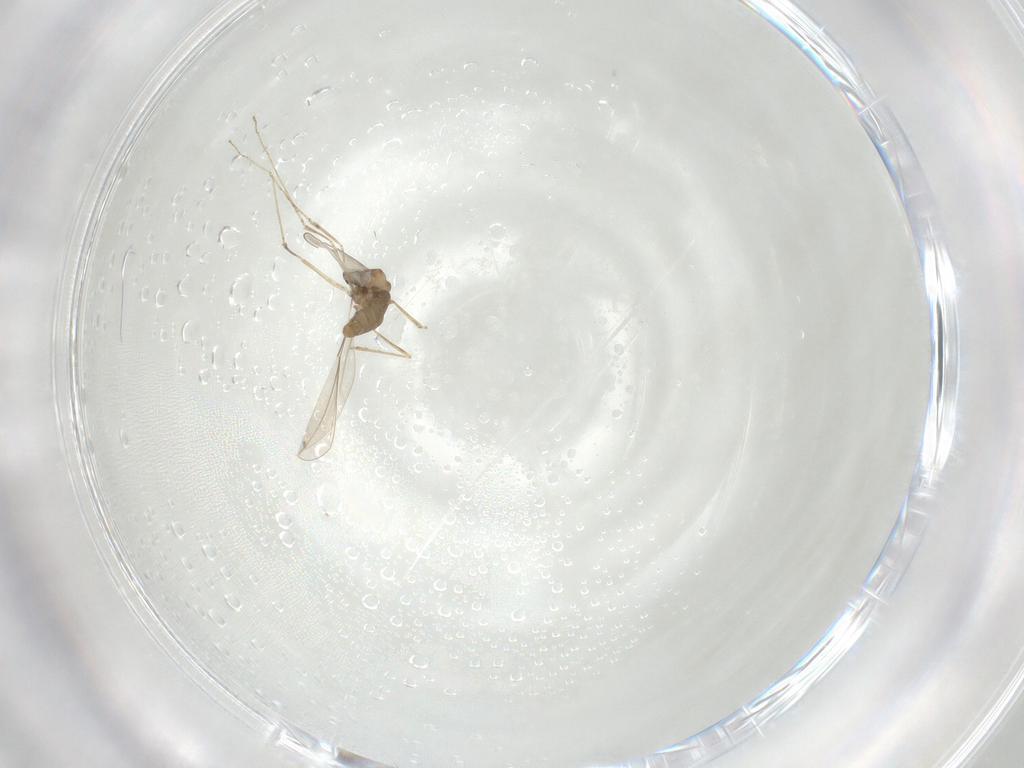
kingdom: Animalia
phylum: Arthropoda
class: Insecta
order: Diptera
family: Cecidomyiidae
